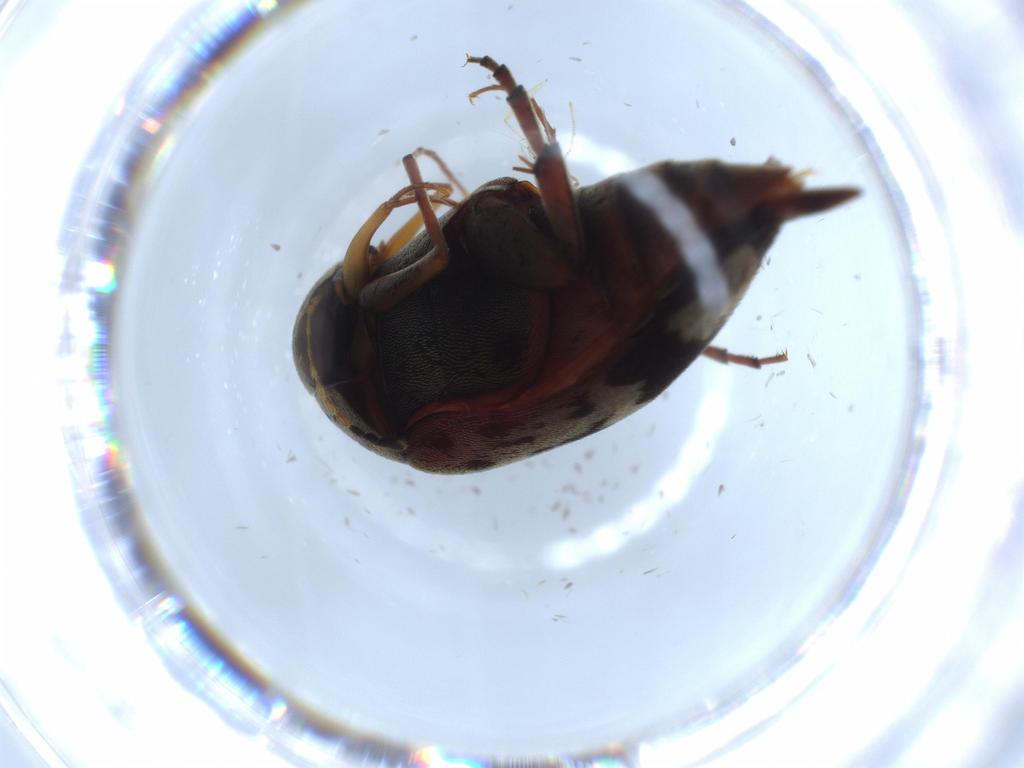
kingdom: Animalia
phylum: Arthropoda
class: Insecta
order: Coleoptera
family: Mordellidae
